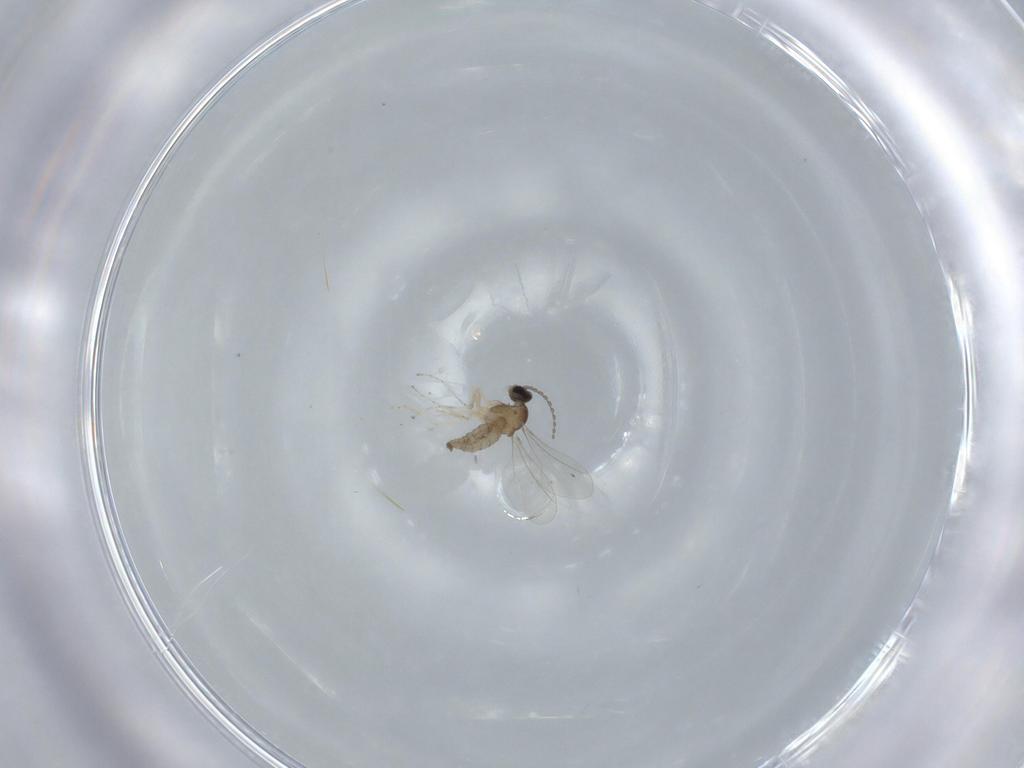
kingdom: Animalia
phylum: Arthropoda
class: Insecta
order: Diptera
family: Cecidomyiidae
